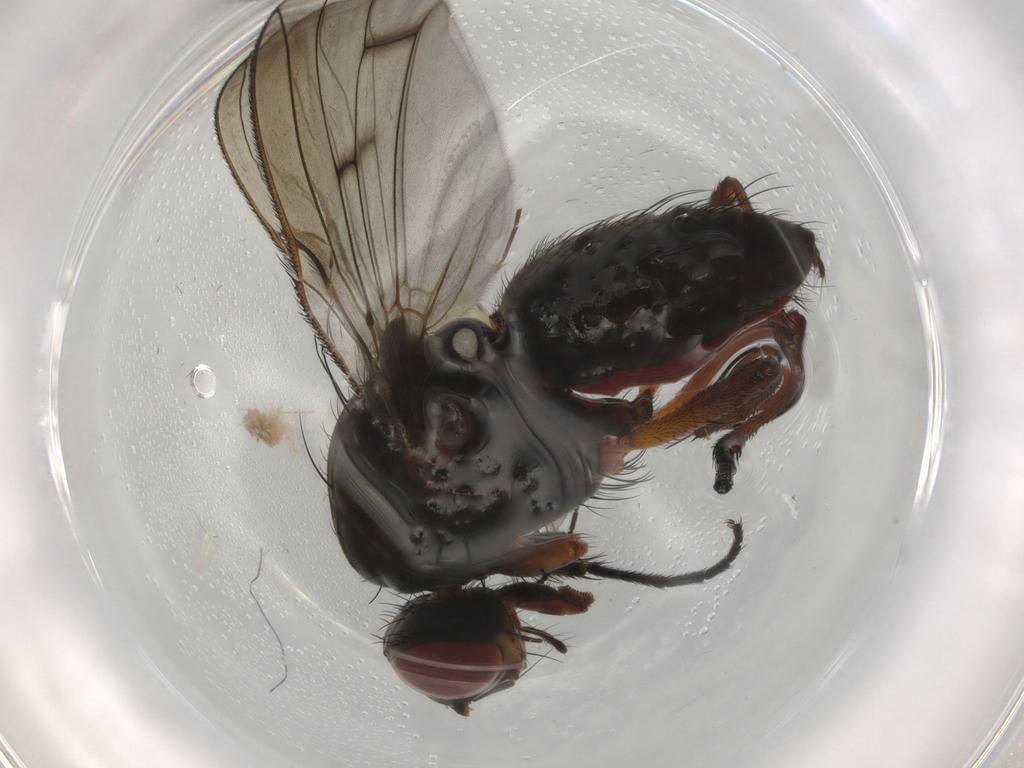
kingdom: Animalia
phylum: Arthropoda
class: Insecta
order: Diptera
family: Anthomyiidae
